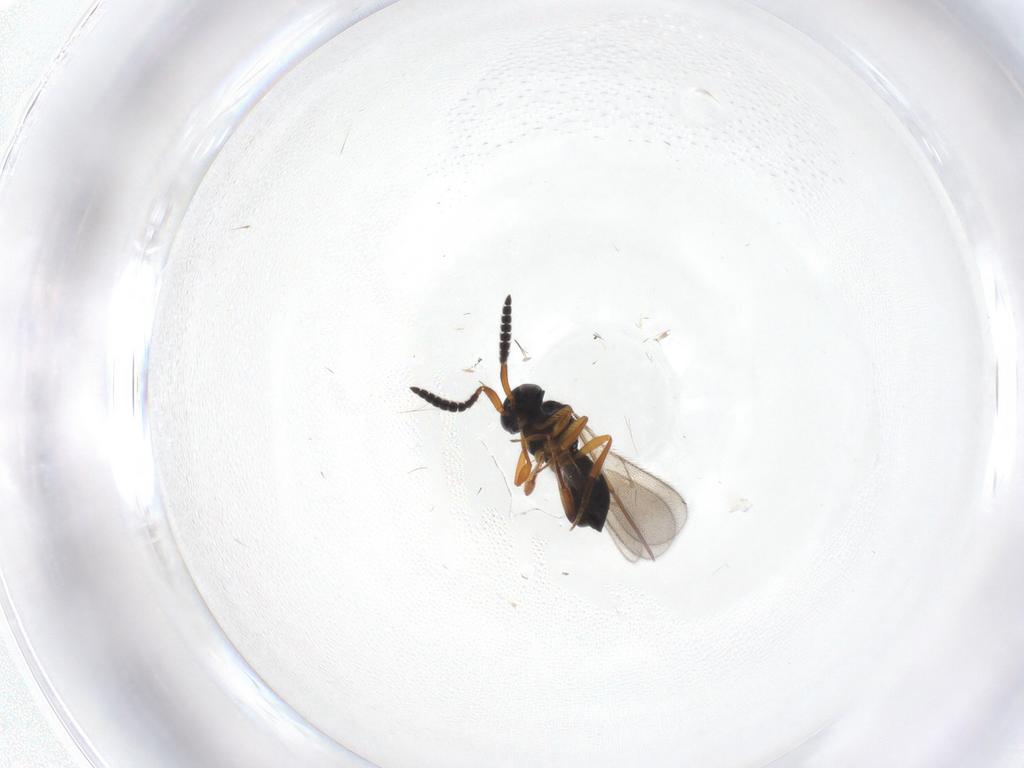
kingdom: Animalia
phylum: Arthropoda
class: Insecta
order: Hymenoptera
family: Scelionidae
